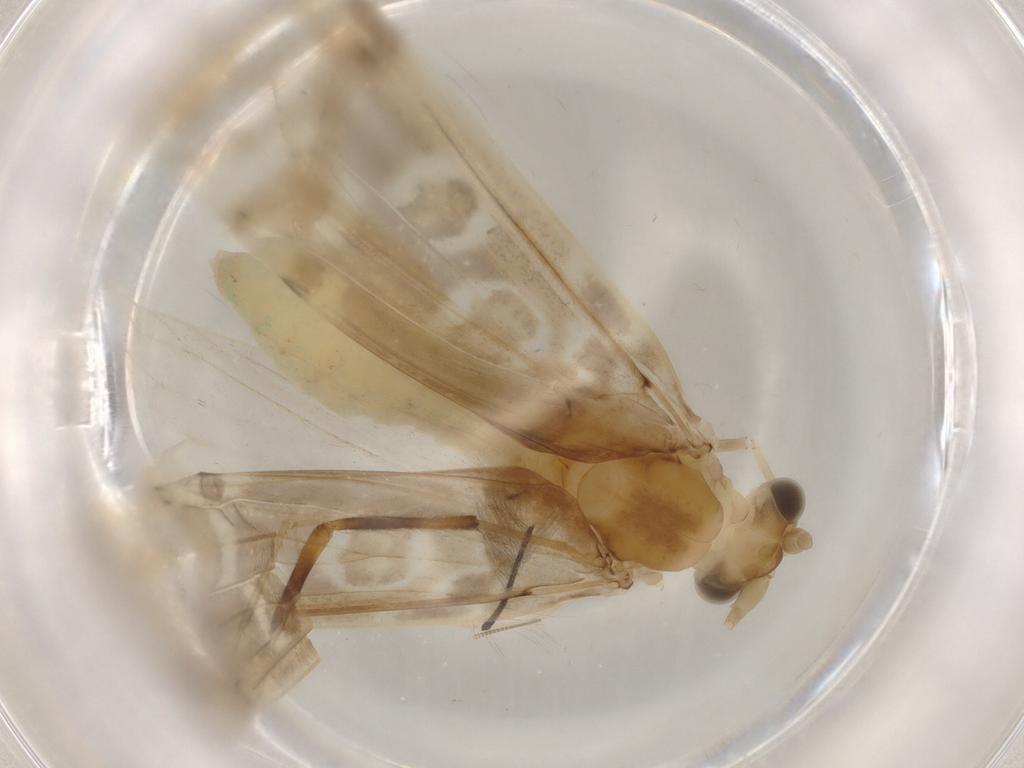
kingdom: Animalia
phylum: Arthropoda
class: Insecta
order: Trichoptera
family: Leptoceridae
